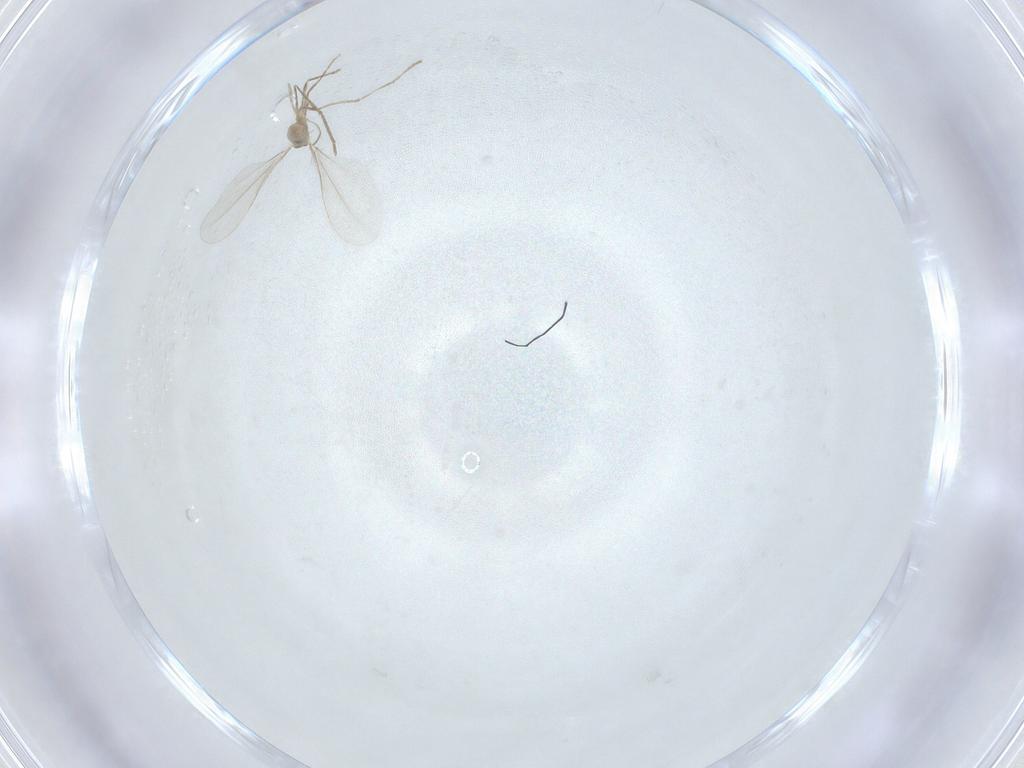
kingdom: Animalia
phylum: Arthropoda
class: Insecta
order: Diptera
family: Cecidomyiidae
